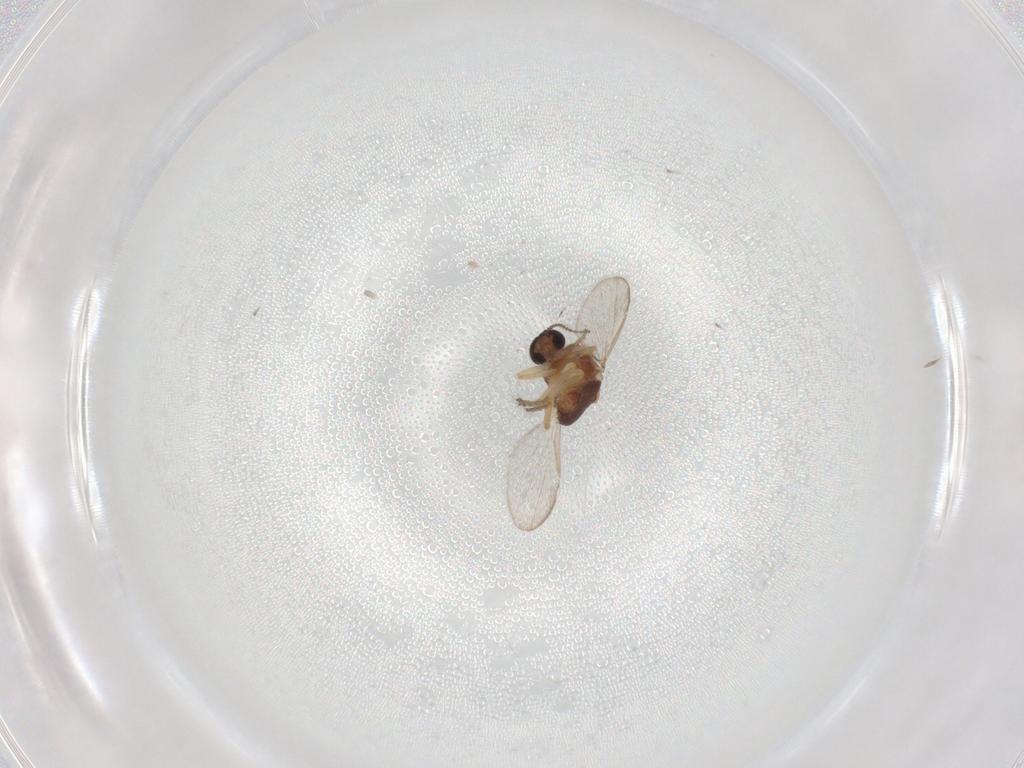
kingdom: Animalia
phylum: Arthropoda
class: Insecta
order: Diptera
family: Ceratopogonidae
